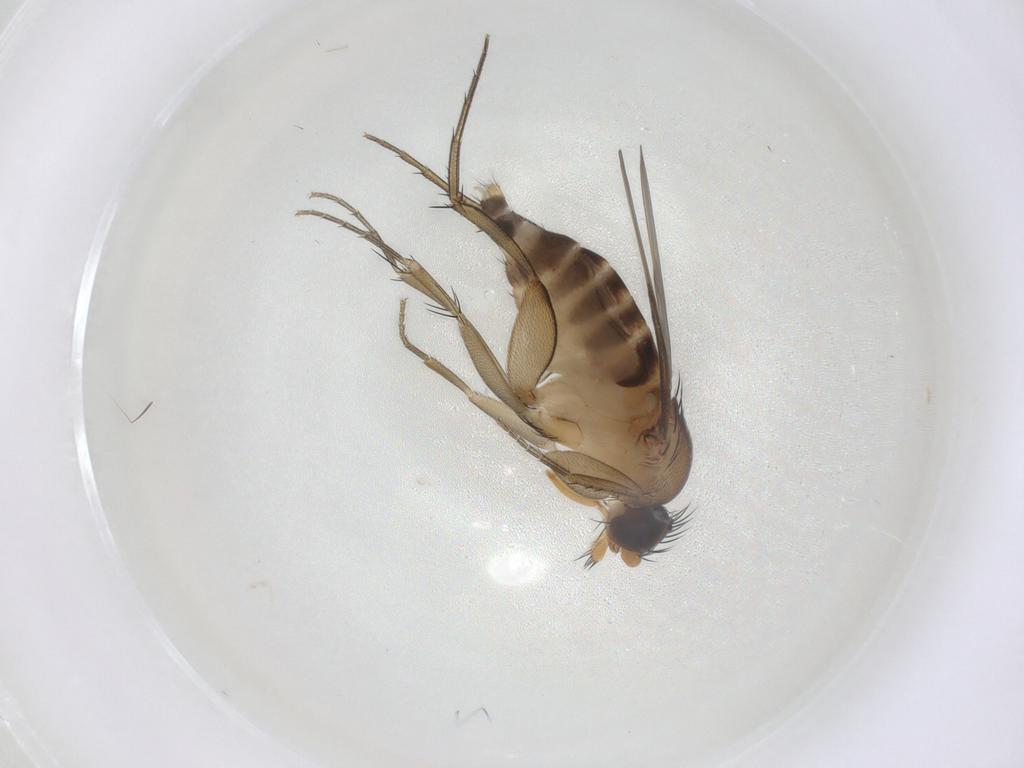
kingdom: Animalia
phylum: Arthropoda
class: Insecta
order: Diptera
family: Phoridae
